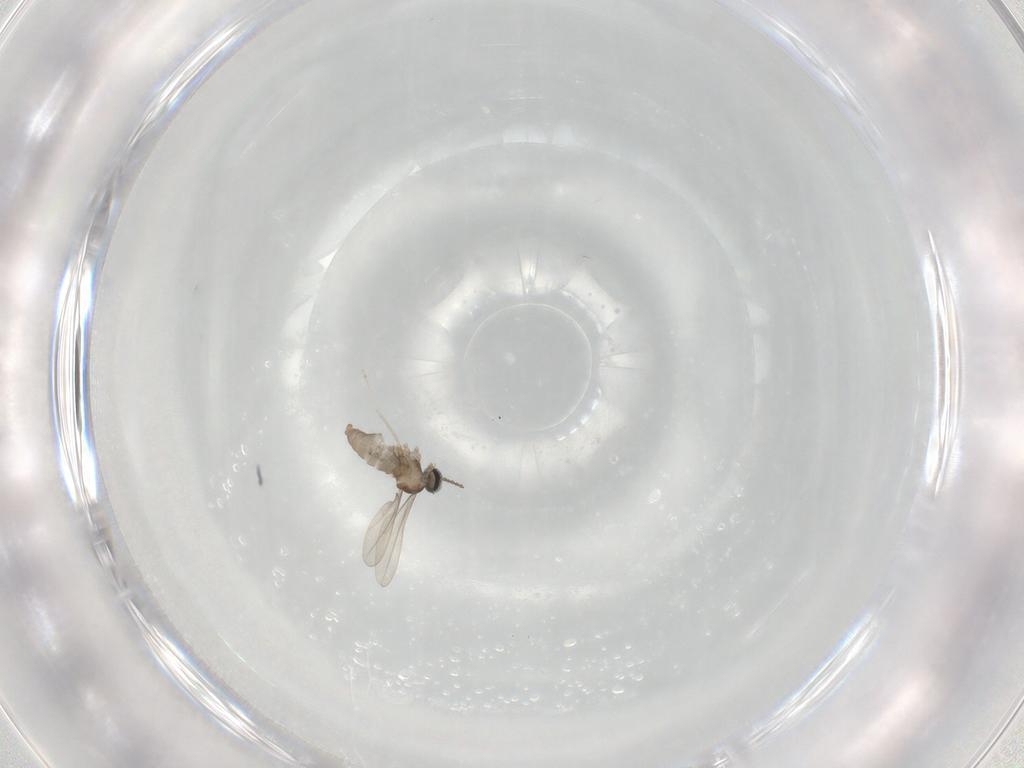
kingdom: Animalia
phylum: Arthropoda
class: Insecta
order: Diptera
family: Cecidomyiidae
